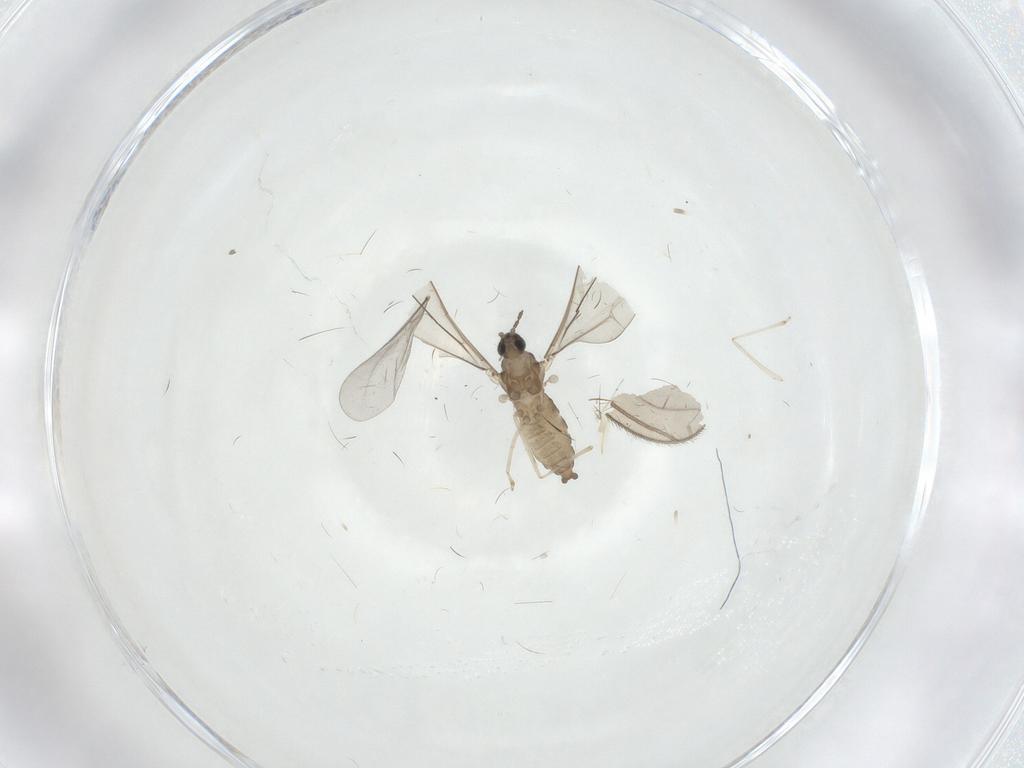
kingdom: Animalia
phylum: Arthropoda
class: Insecta
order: Diptera
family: Cecidomyiidae
